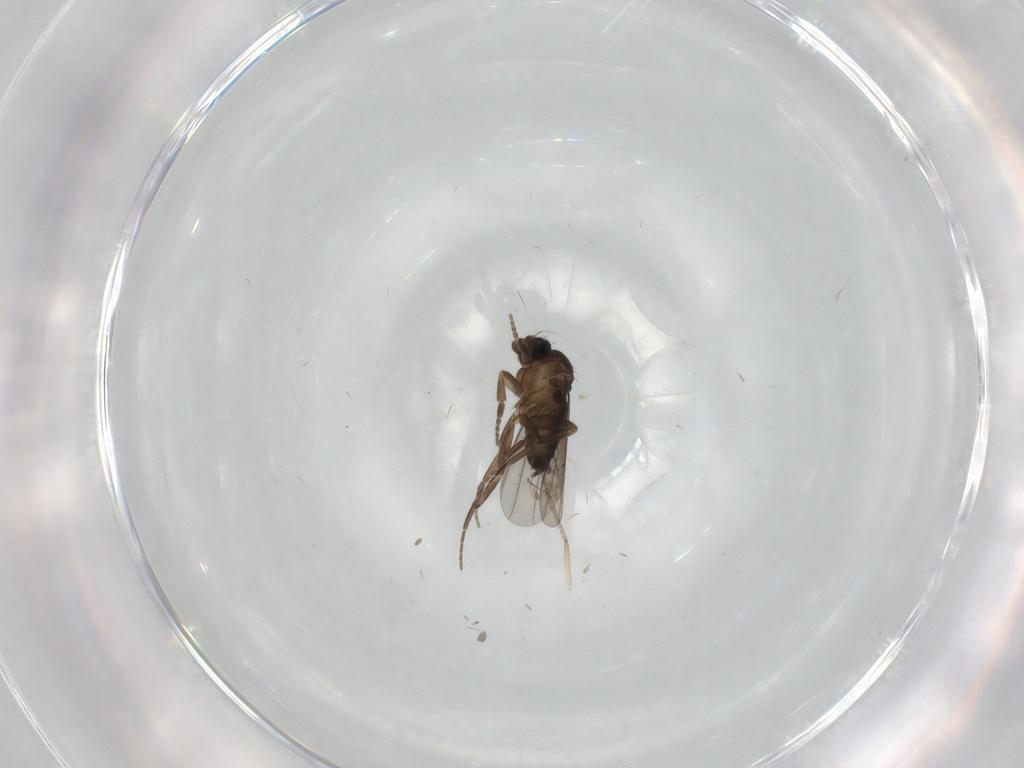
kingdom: Animalia
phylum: Arthropoda
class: Insecta
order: Diptera
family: Phoridae
